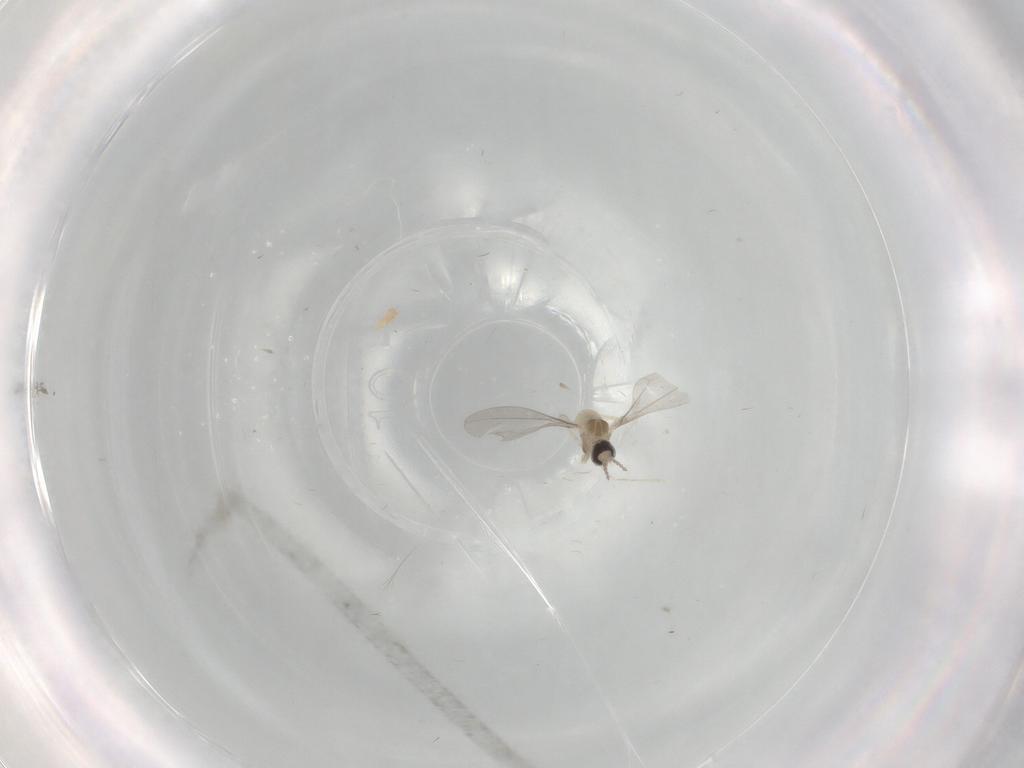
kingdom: Animalia
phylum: Arthropoda
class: Insecta
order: Diptera
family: Cecidomyiidae
